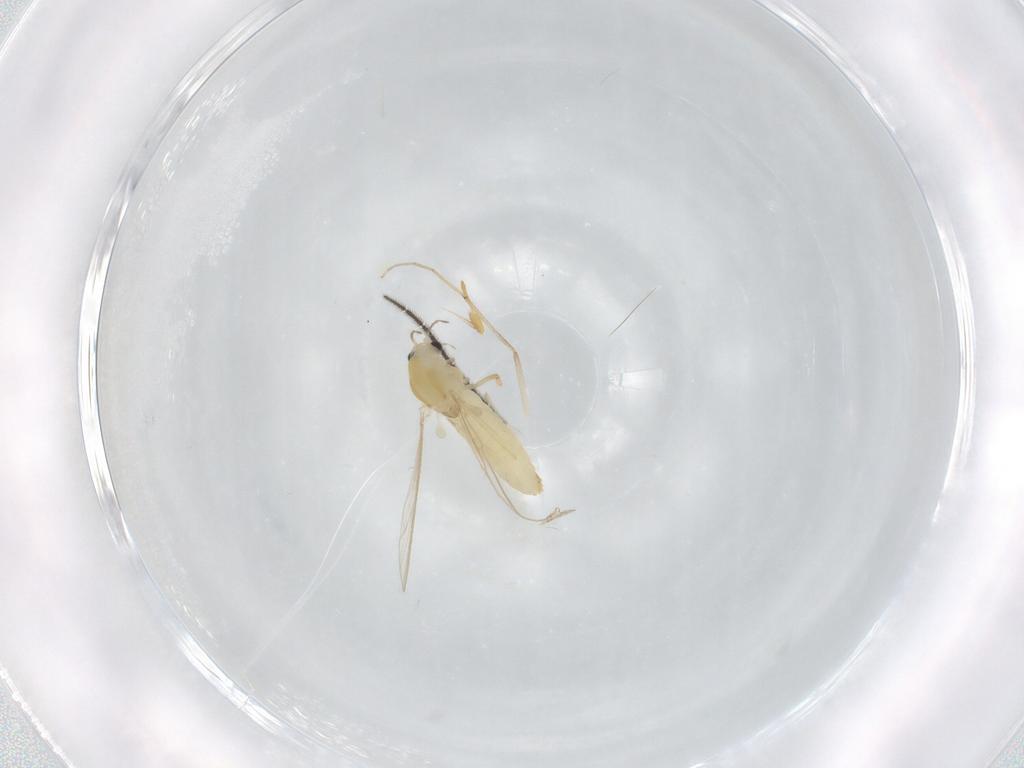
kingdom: Animalia
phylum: Arthropoda
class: Insecta
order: Diptera
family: Chironomidae
